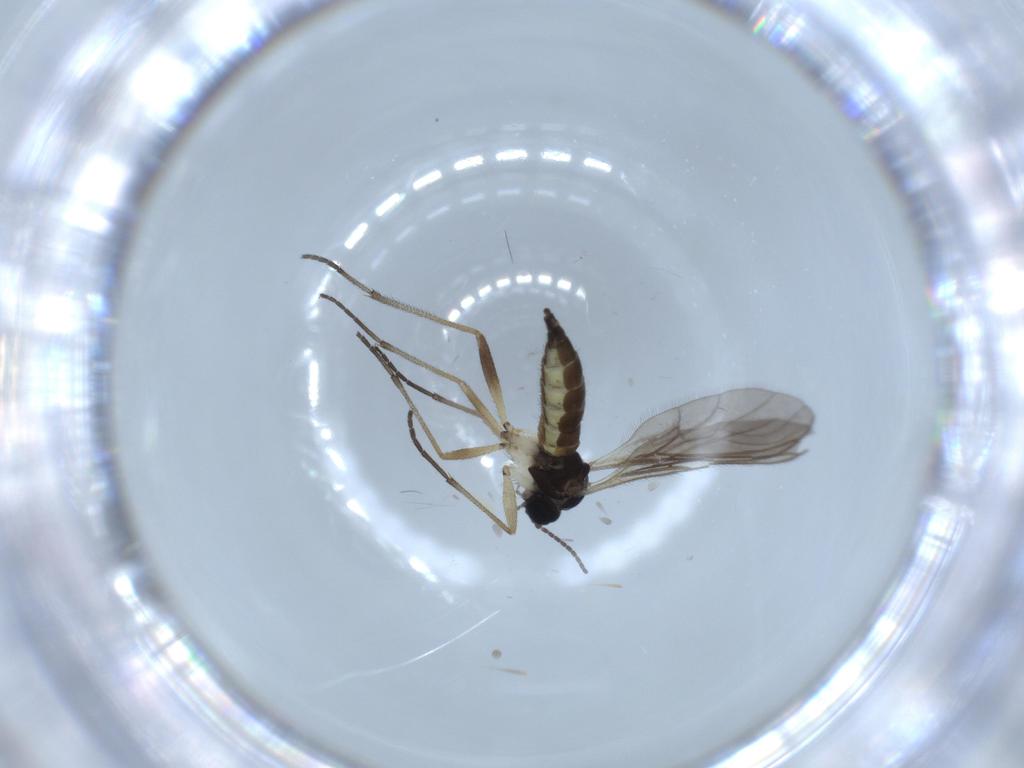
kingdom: Animalia
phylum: Arthropoda
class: Insecta
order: Diptera
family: Sciaridae
